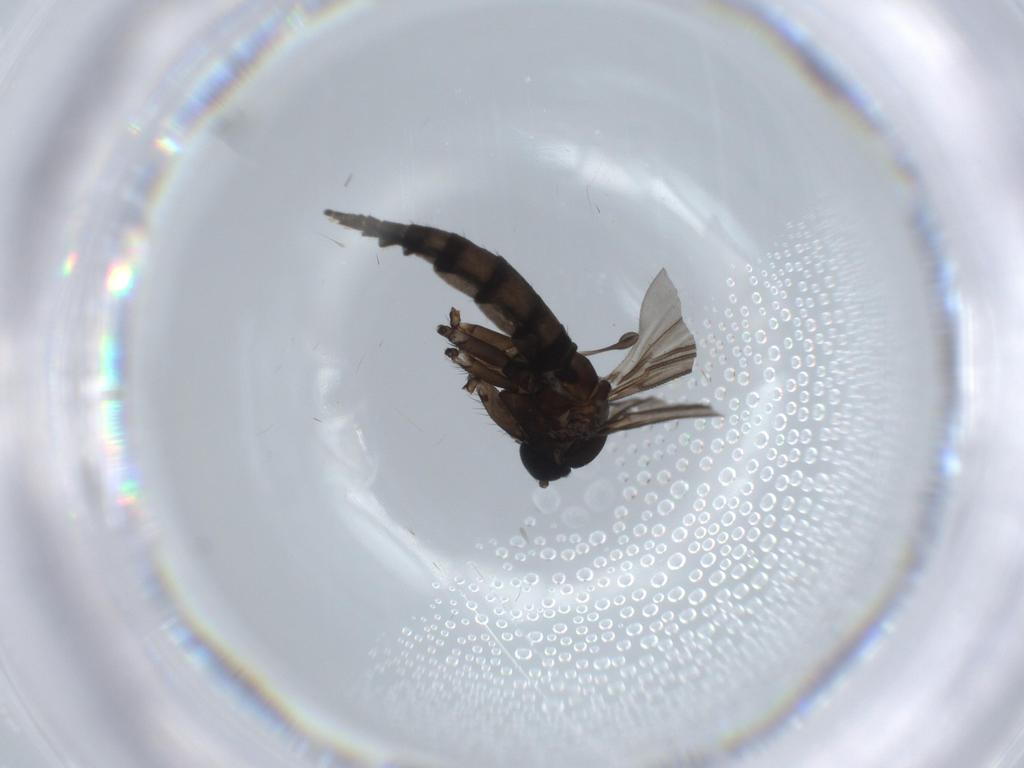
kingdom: Animalia
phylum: Arthropoda
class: Insecta
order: Diptera
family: Sciaridae
